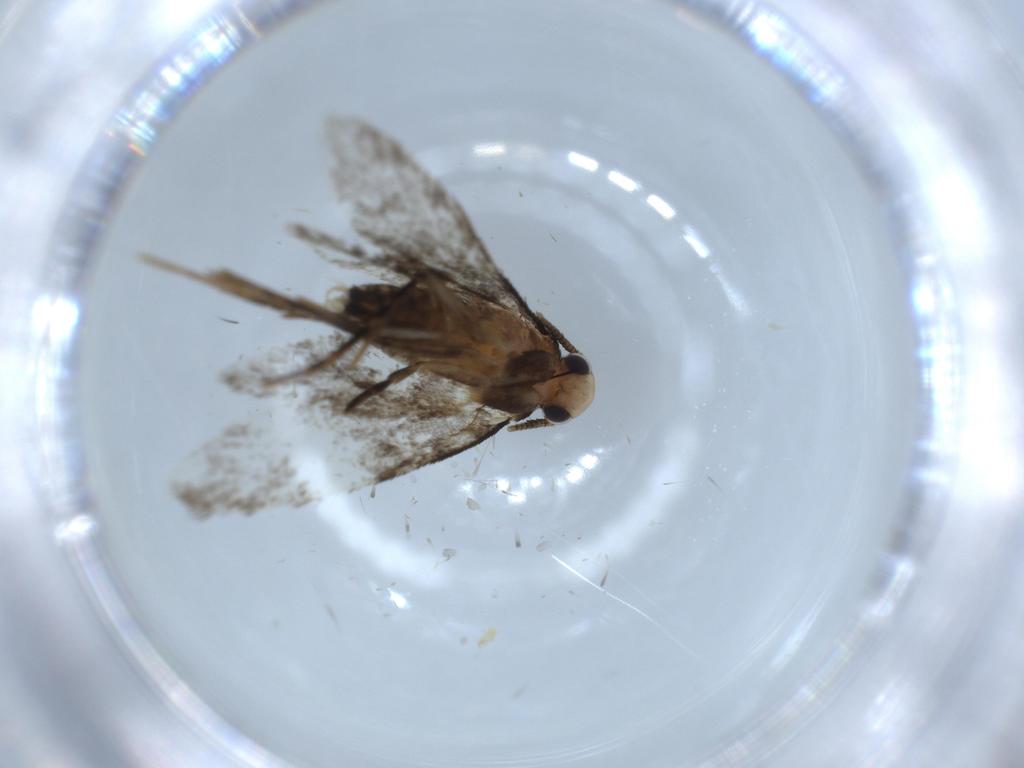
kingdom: Animalia
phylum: Arthropoda
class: Insecta
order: Lepidoptera
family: Tineidae
